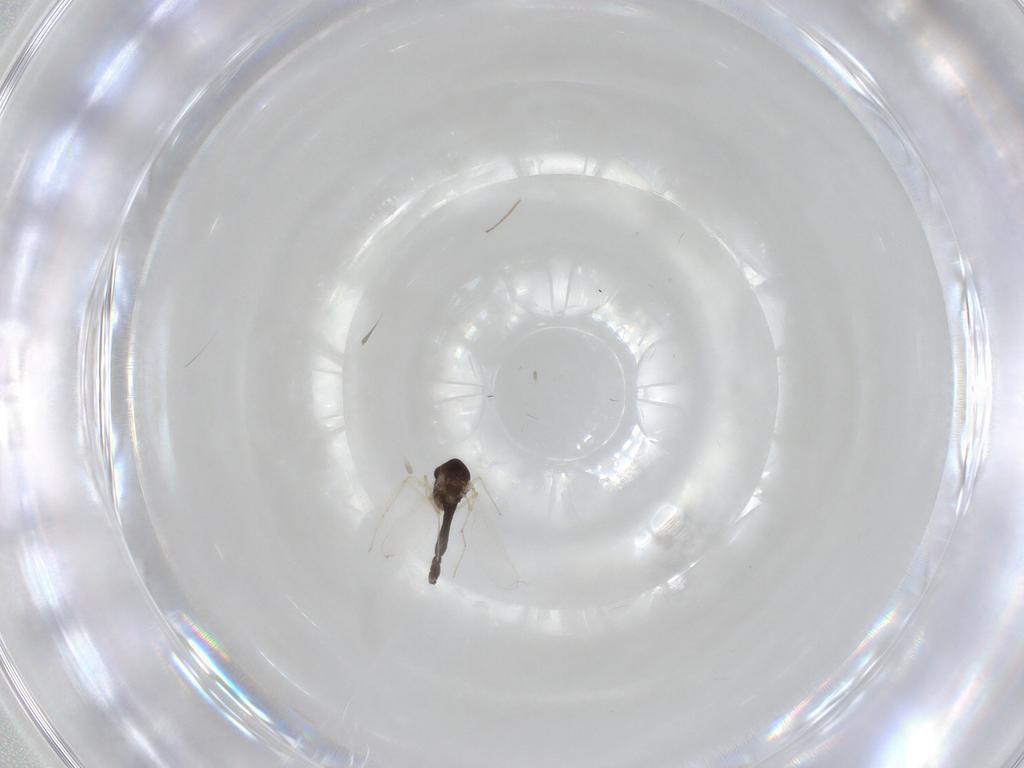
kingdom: Animalia
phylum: Arthropoda
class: Insecta
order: Diptera
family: Chironomidae
